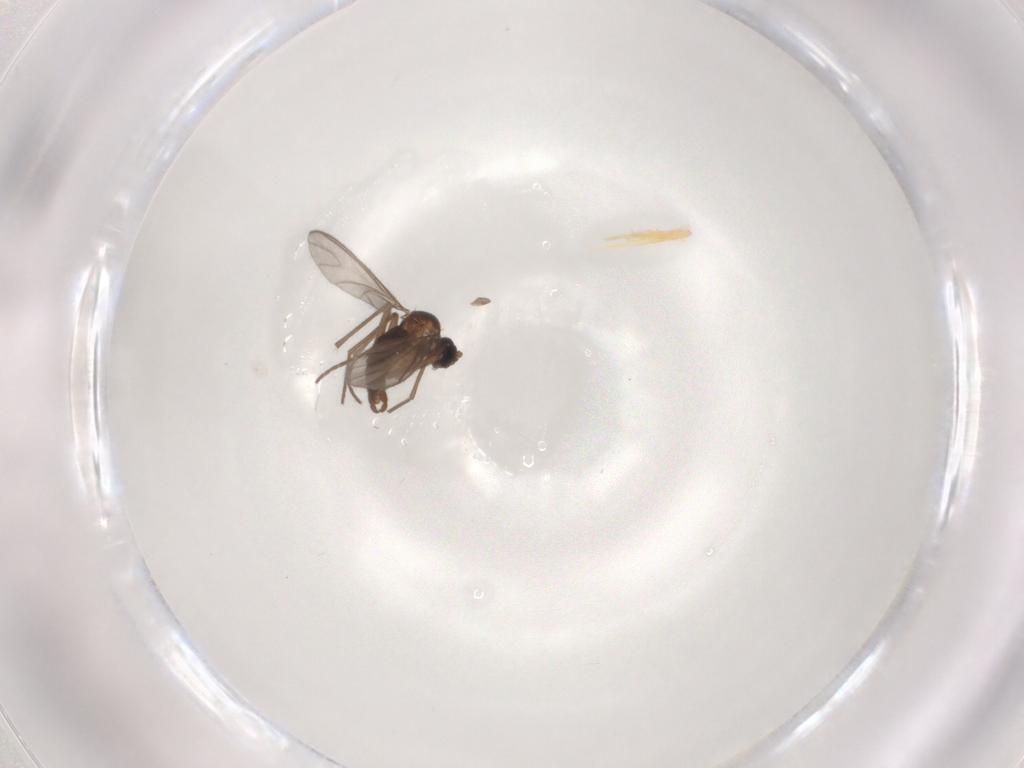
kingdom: Animalia
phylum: Arthropoda
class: Insecta
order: Diptera
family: Sciaridae
